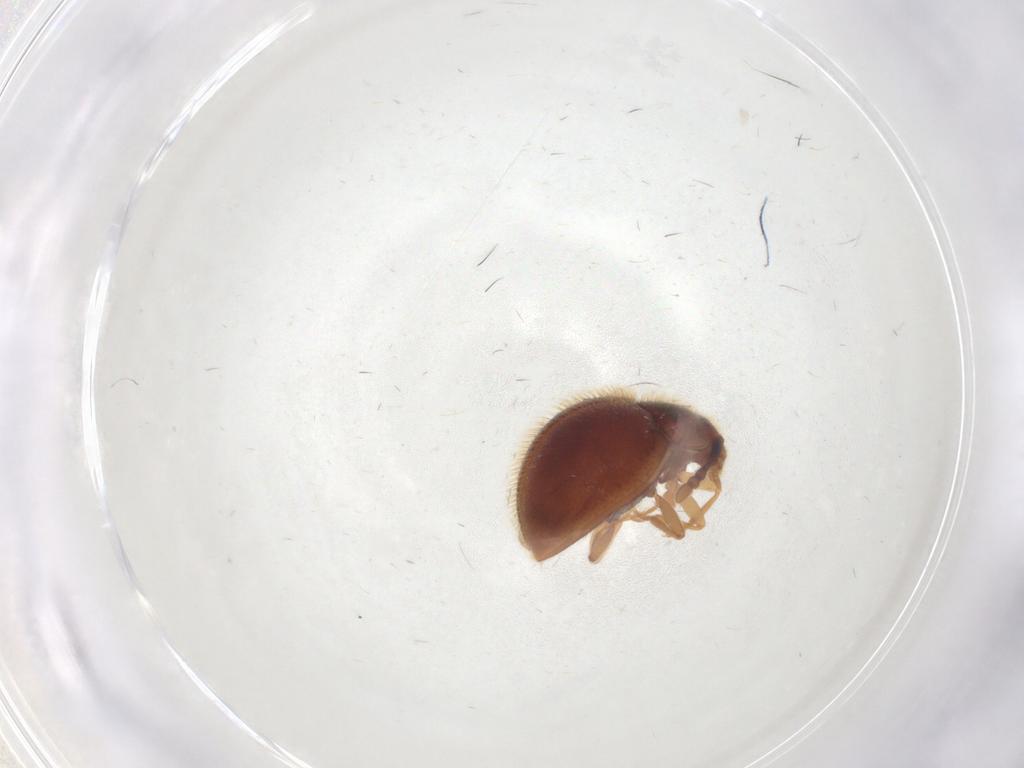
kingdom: Animalia
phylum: Arthropoda
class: Insecta
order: Coleoptera
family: Anamorphidae
